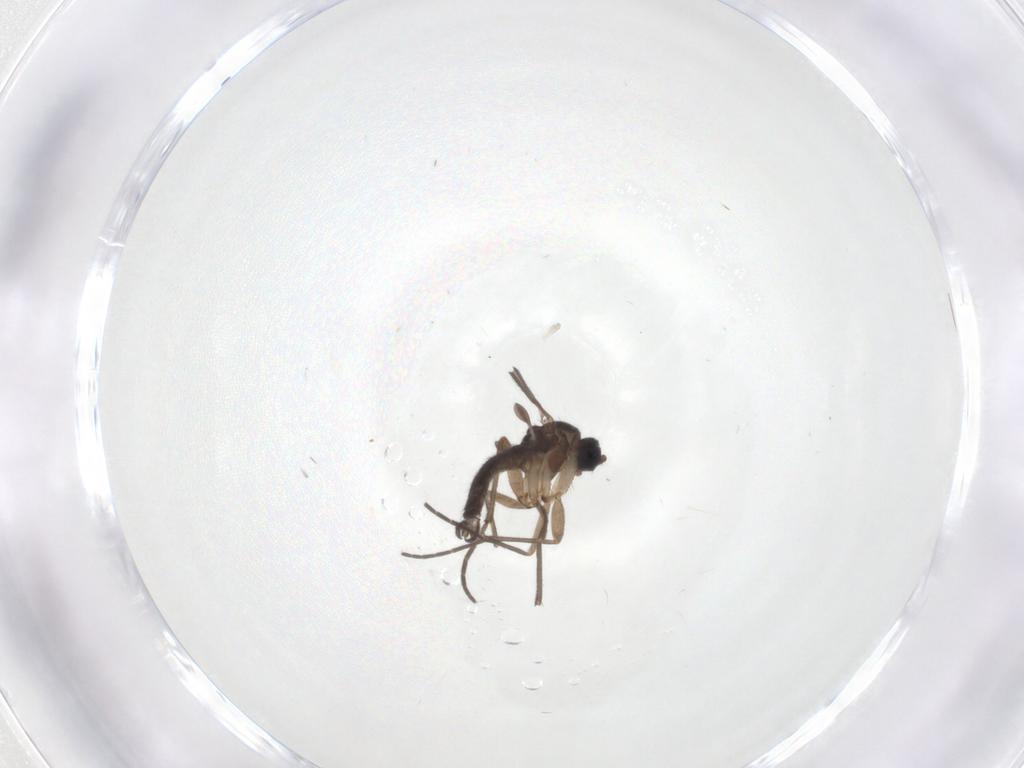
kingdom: Animalia
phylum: Arthropoda
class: Insecta
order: Diptera
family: Sciaridae
